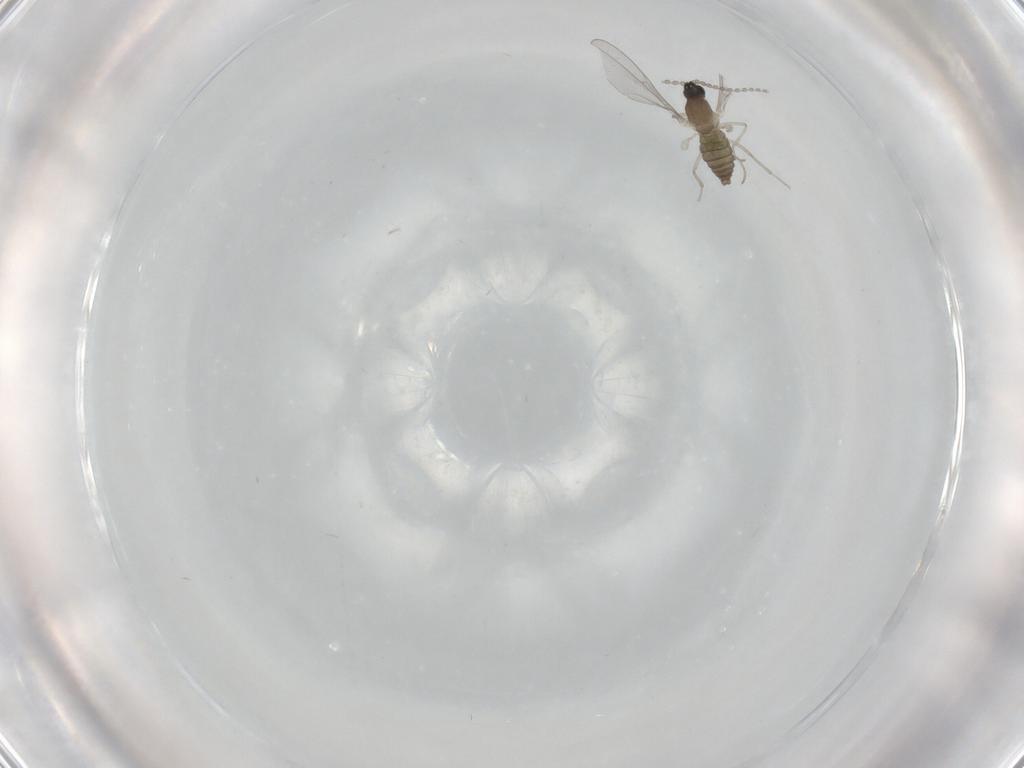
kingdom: Animalia
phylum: Arthropoda
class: Insecta
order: Diptera
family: Cecidomyiidae
